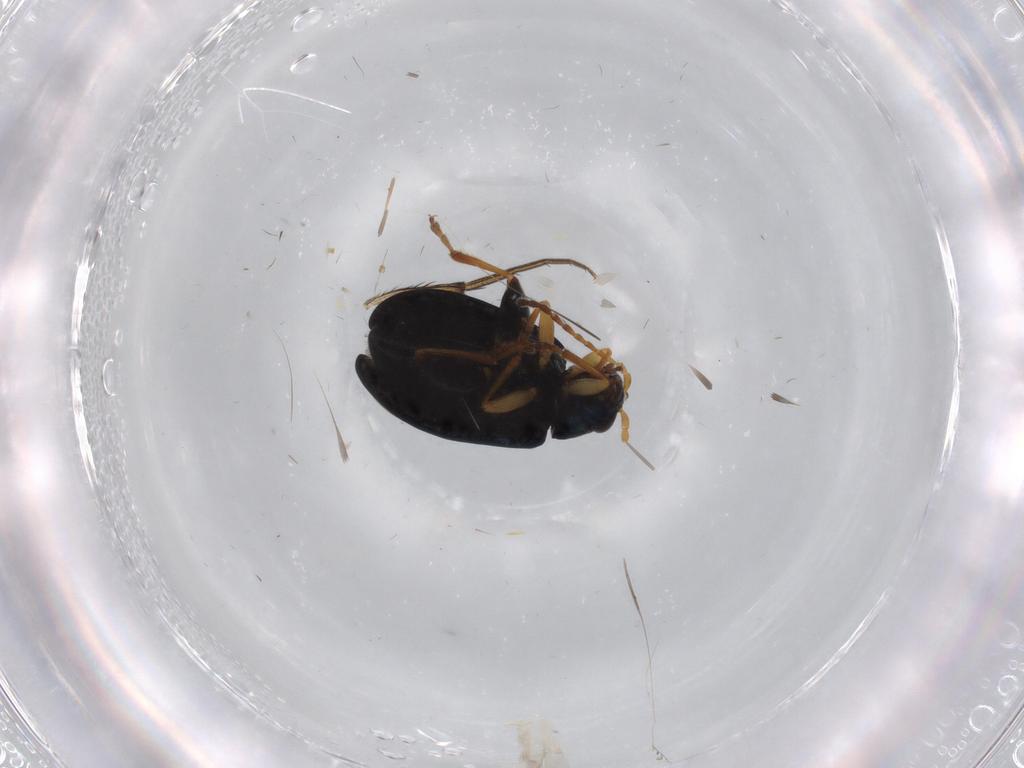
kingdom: Animalia
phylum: Arthropoda
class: Insecta
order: Coleoptera
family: Chrysomelidae
